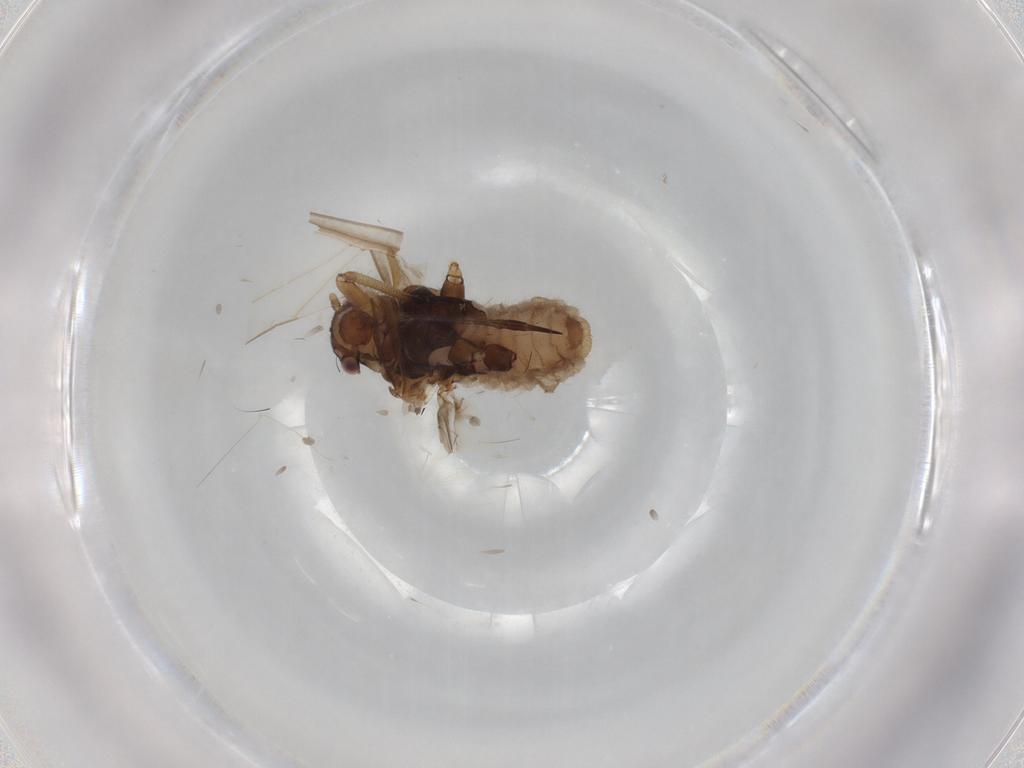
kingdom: Animalia
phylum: Arthropoda
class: Insecta
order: Hemiptera
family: Aphididae
